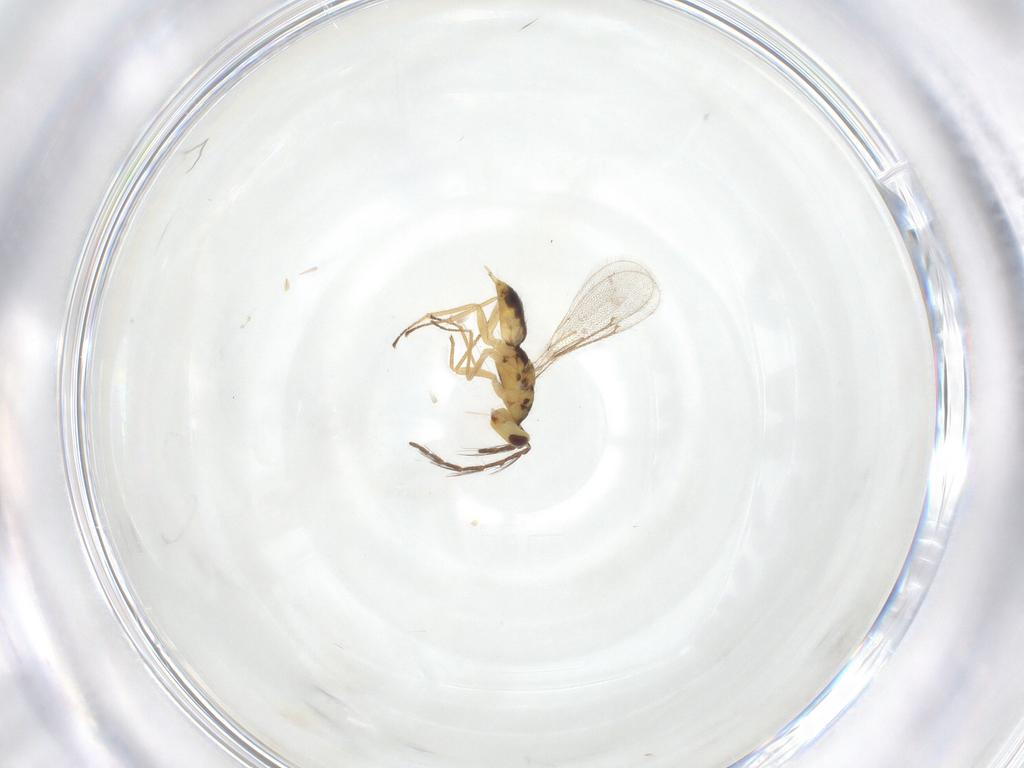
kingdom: Animalia
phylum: Arthropoda
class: Insecta
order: Hymenoptera
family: Eulophidae
